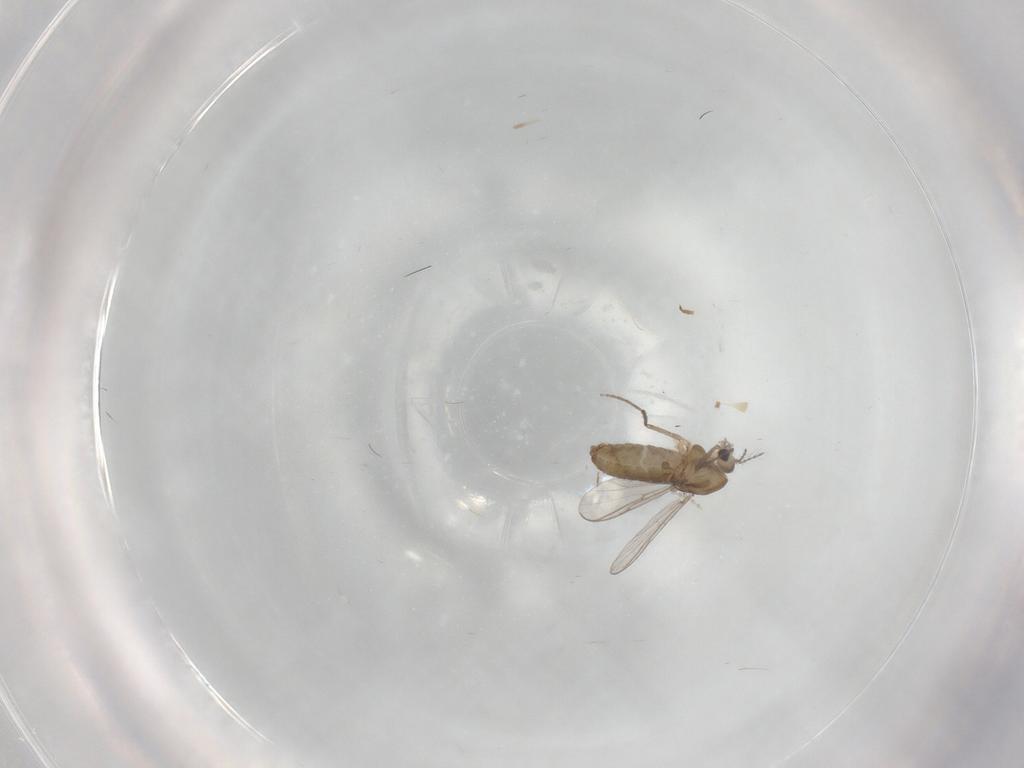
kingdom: Animalia
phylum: Arthropoda
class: Insecta
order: Diptera
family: Chironomidae
